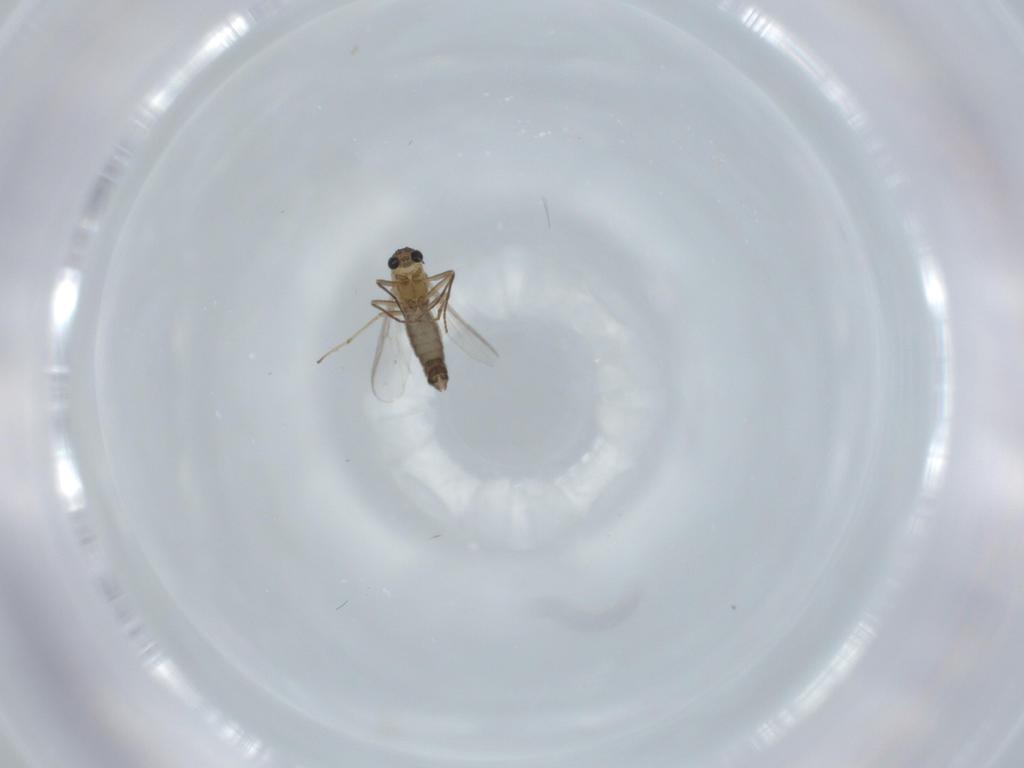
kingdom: Animalia
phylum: Arthropoda
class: Insecta
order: Diptera
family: Chironomidae
